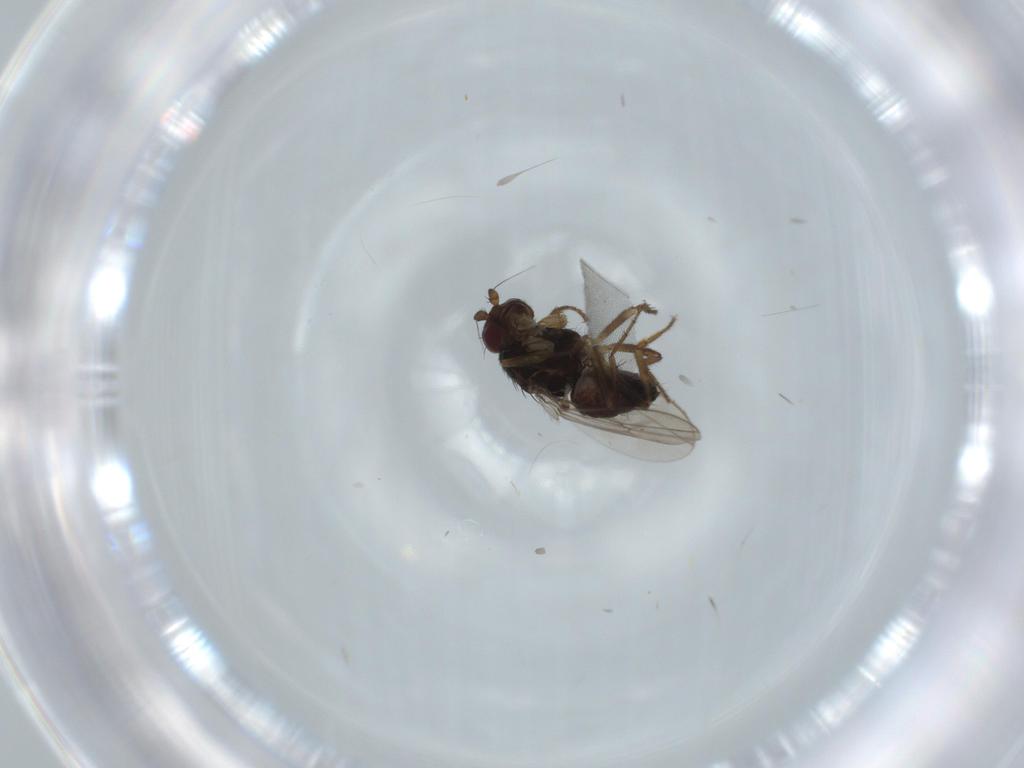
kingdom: Animalia
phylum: Arthropoda
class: Insecta
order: Diptera
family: Sphaeroceridae
